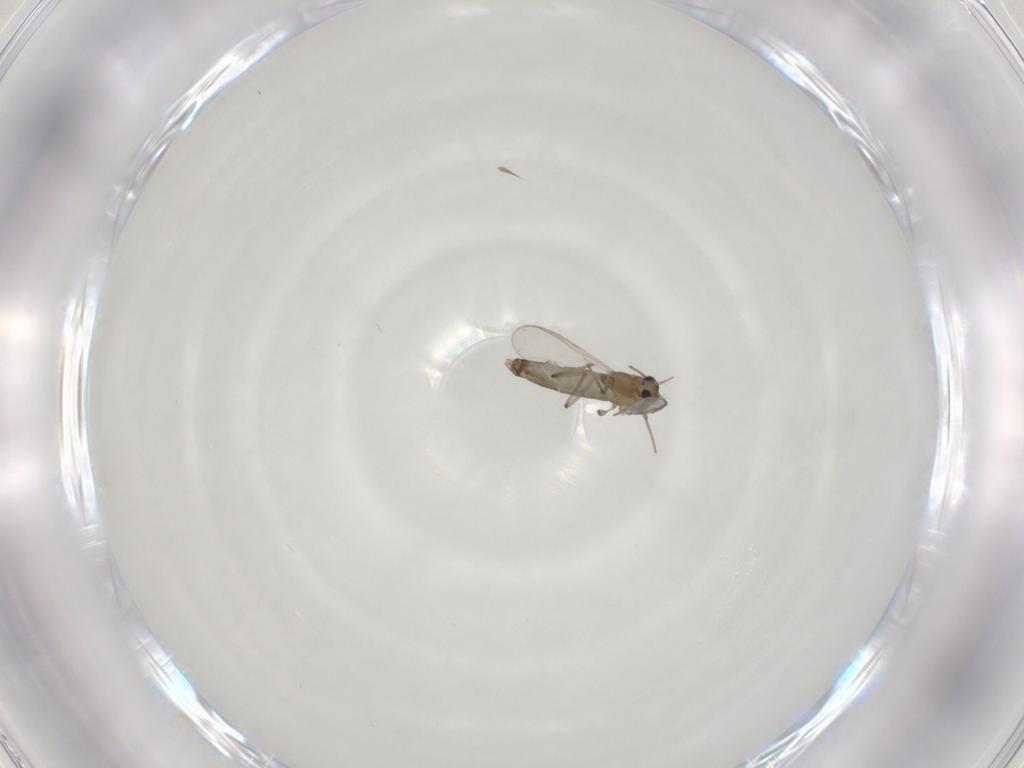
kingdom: Animalia
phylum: Arthropoda
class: Insecta
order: Diptera
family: Chironomidae
